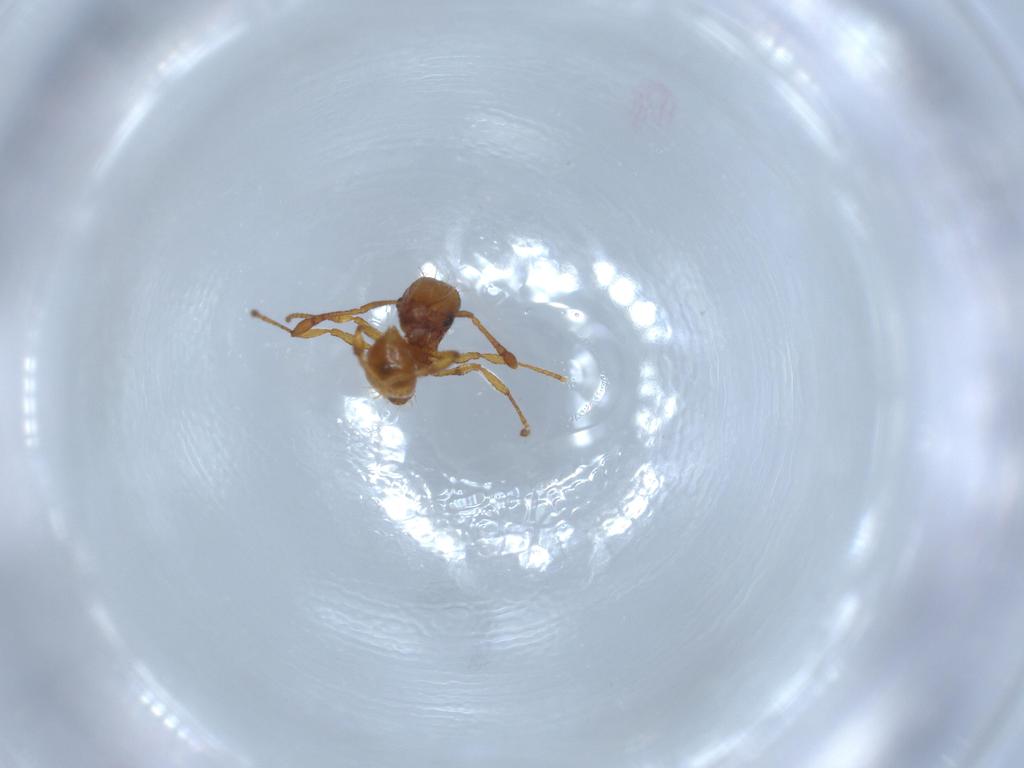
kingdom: Animalia
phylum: Arthropoda
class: Insecta
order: Hymenoptera
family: Formicidae
